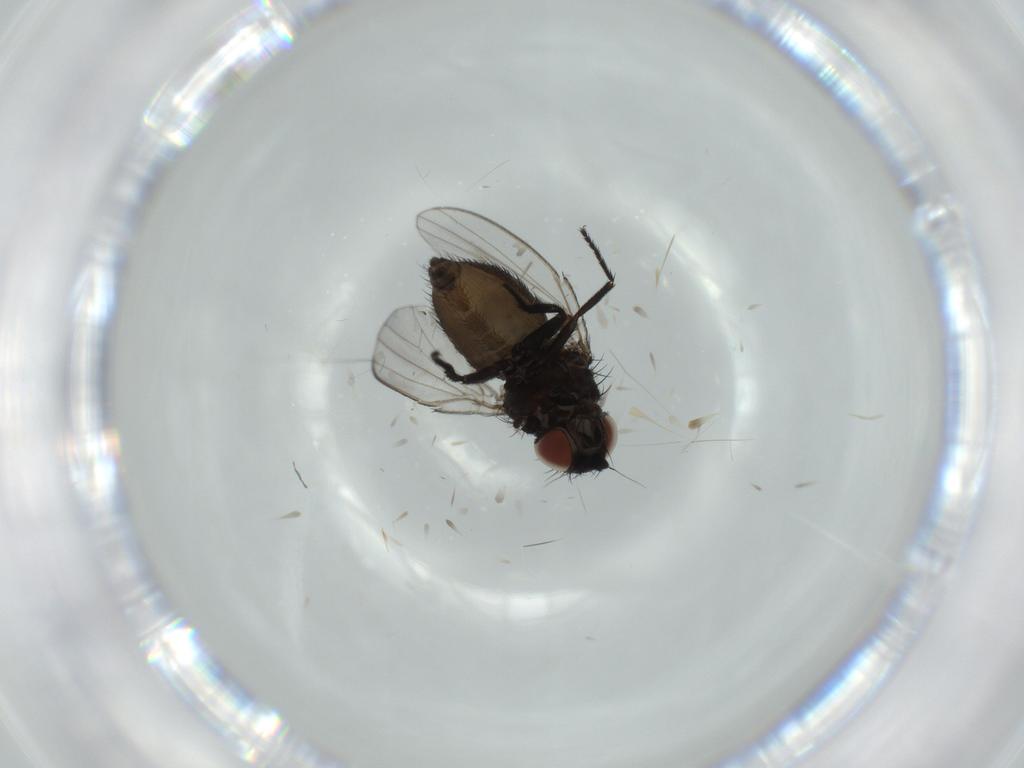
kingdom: Animalia
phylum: Arthropoda
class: Insecta
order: Diptera
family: Milichiidae
